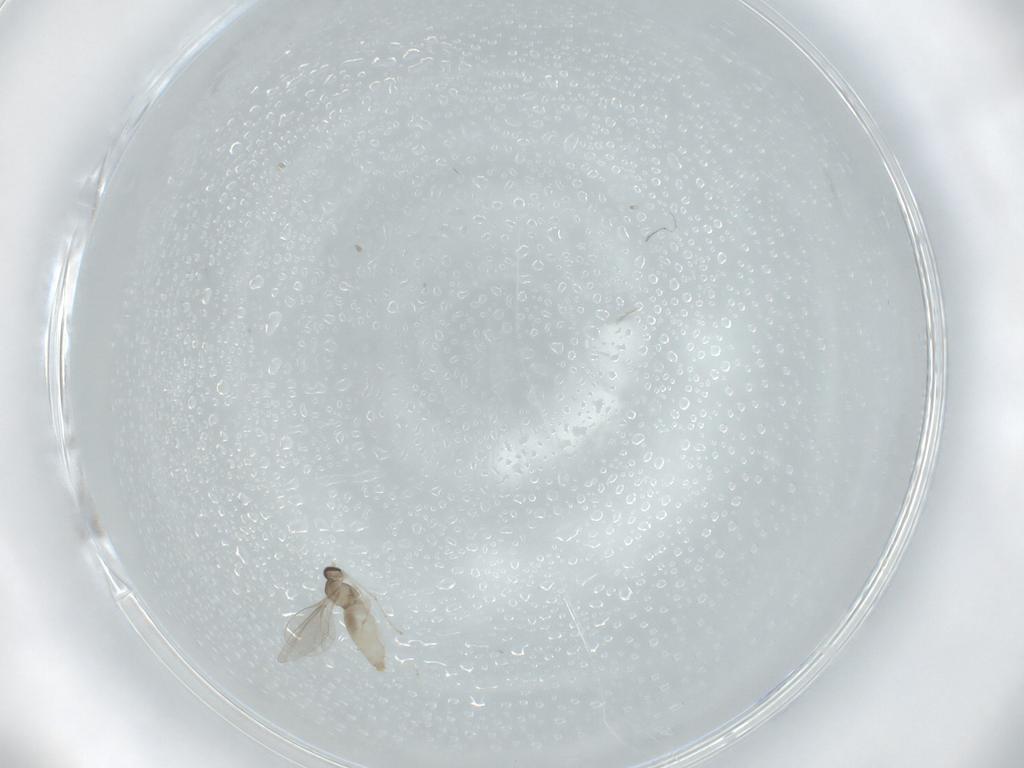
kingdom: Animalia
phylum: Arthropoda
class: Insecta
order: Diptera
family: Cecidomyiidae
